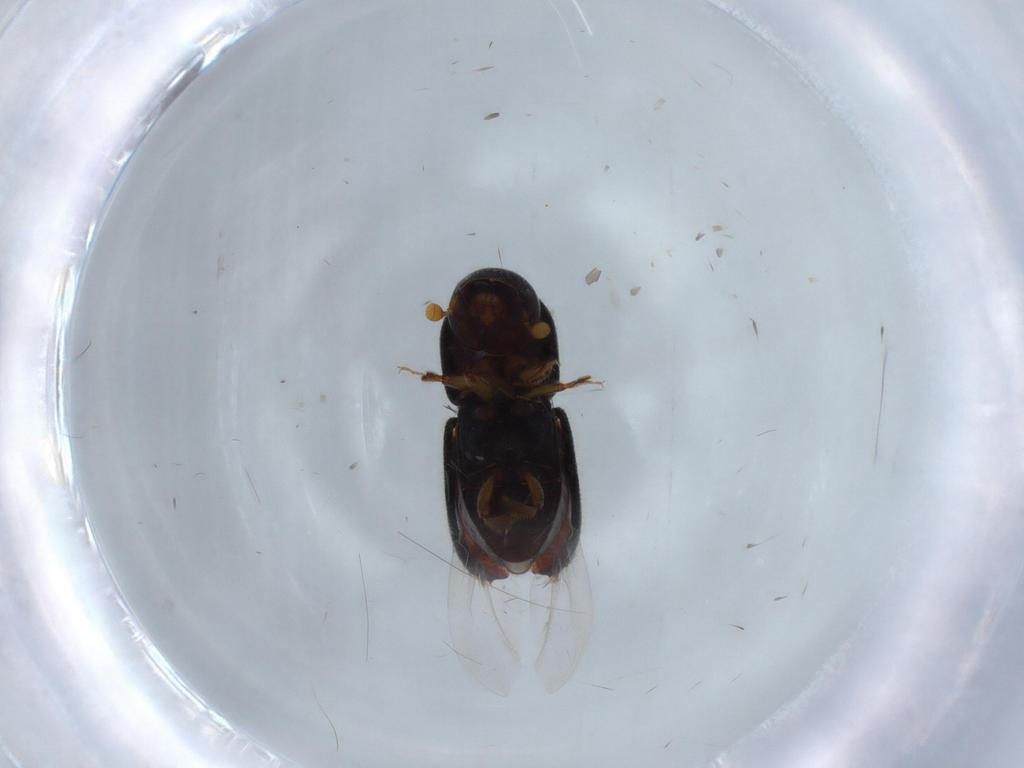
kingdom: Animalia
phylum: Arthropoda
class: Insecta
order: Coleoptera
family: Curculionidae
